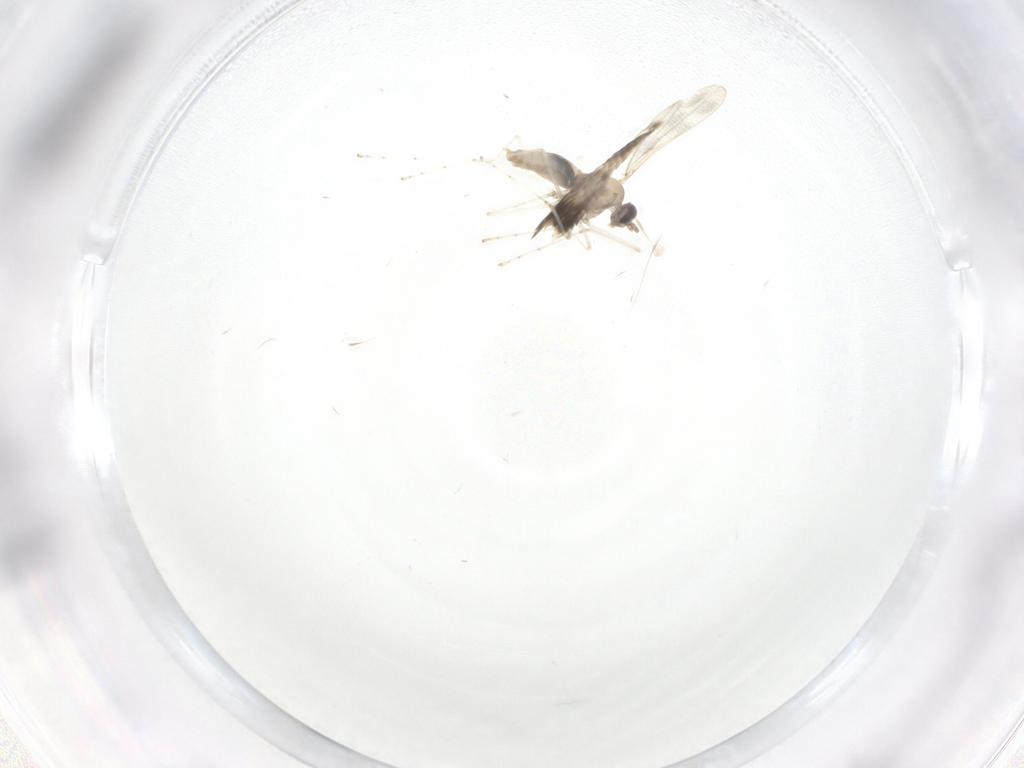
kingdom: Animalia
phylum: Arthropoda
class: Insecta
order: Diptera
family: Cecidomyiidae
